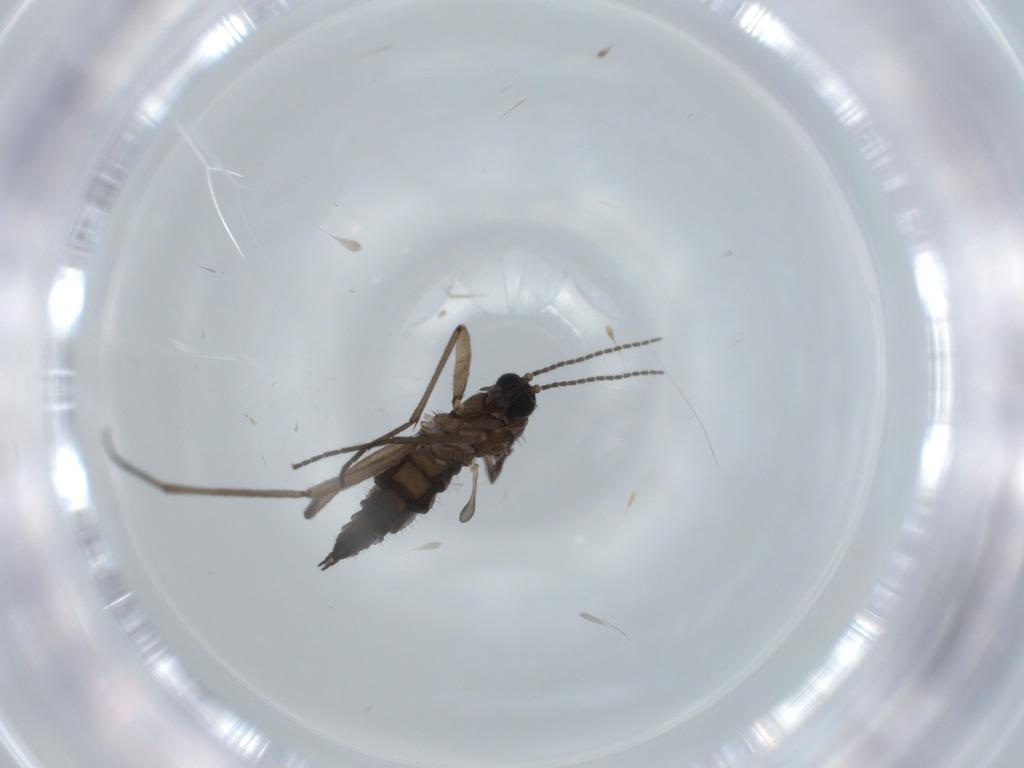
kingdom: Animalia
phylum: Arthropoda
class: Insecta
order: Diptera
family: Sciaridae
